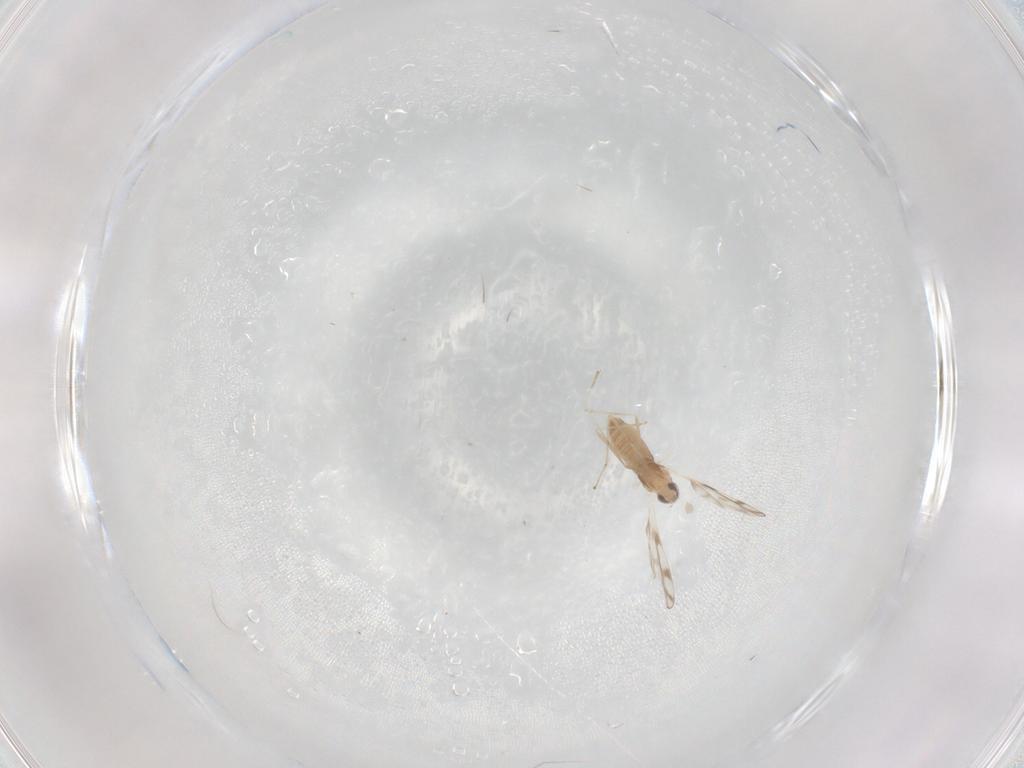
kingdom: Animalia
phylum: Arthropoda
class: Insecta
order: Diptera
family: Cecidomyiidae
